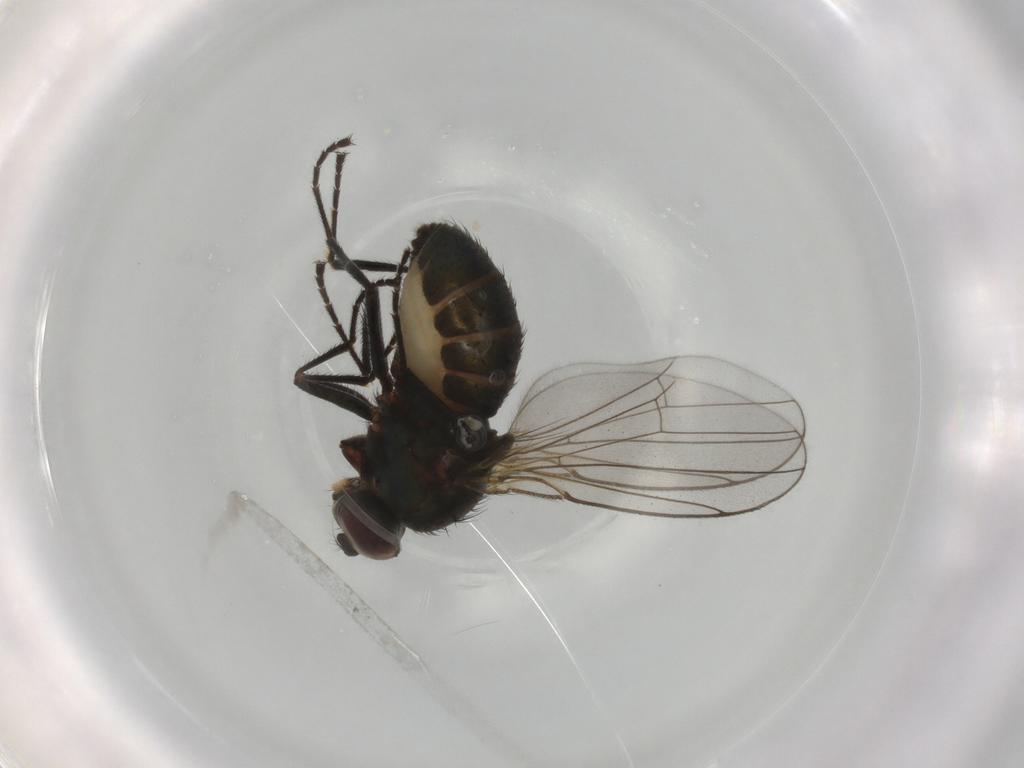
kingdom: Animalia
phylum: Arthropoda
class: Insecta
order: Diptera
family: Ephydridae
